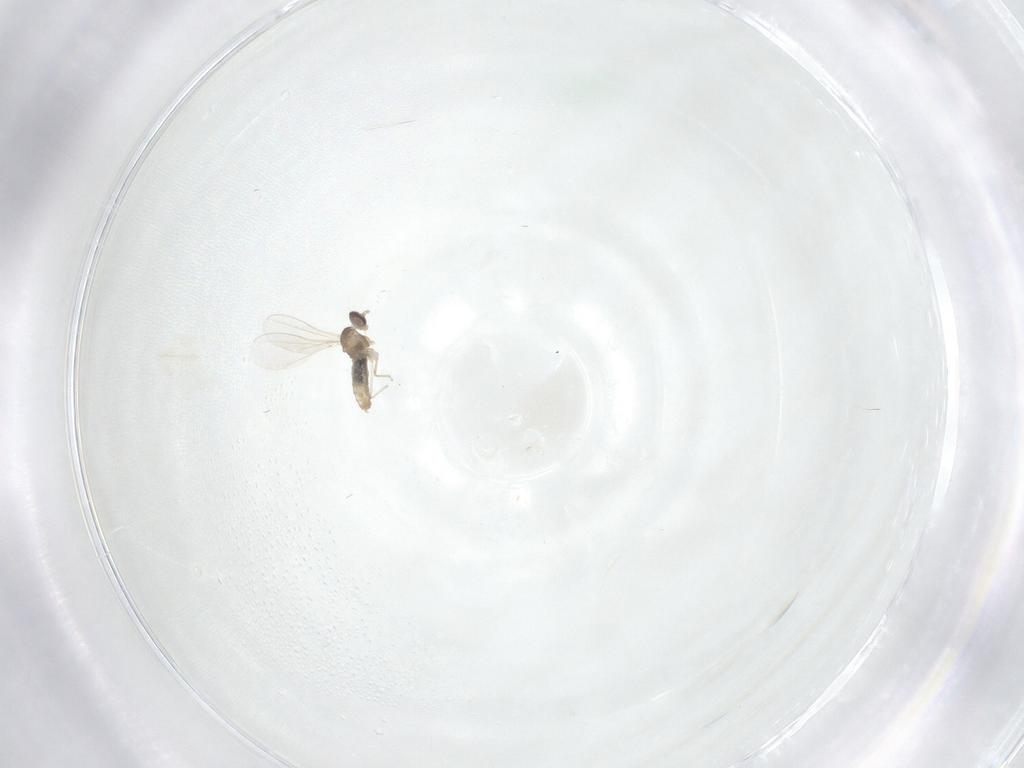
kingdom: Animalia
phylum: Arthropoda
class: Insecta
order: Diptera
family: Cecidomyiidae
